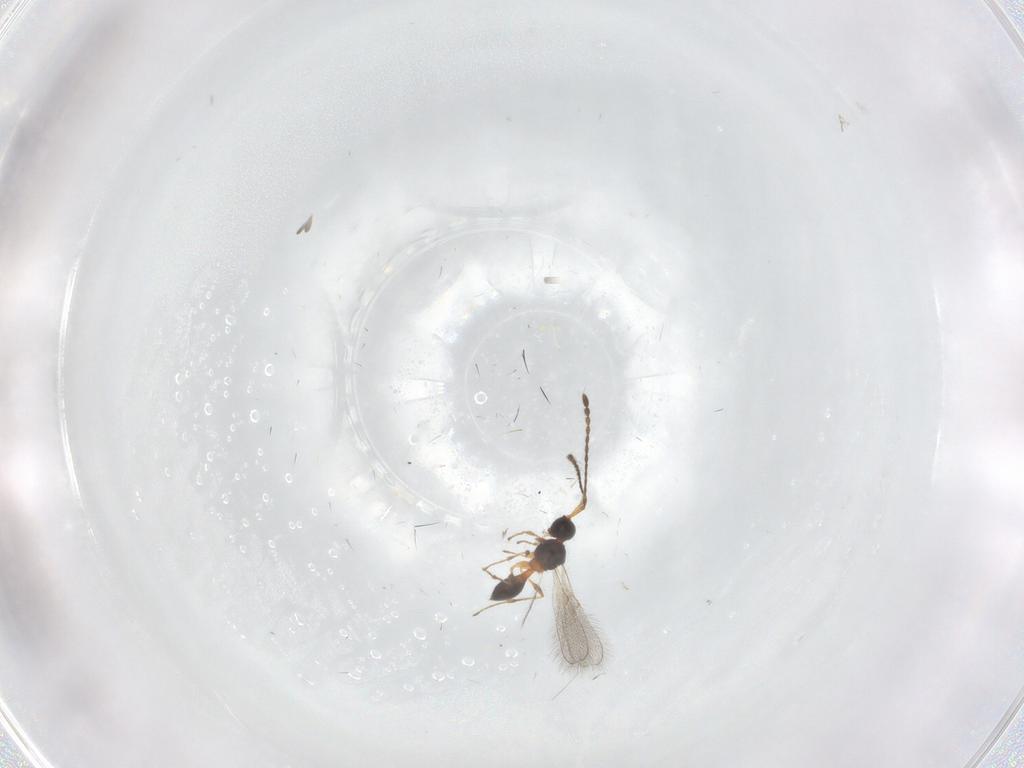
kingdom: Animalia
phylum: Arthropoda
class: Insecta
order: Hymenoptera
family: Diapriidae
